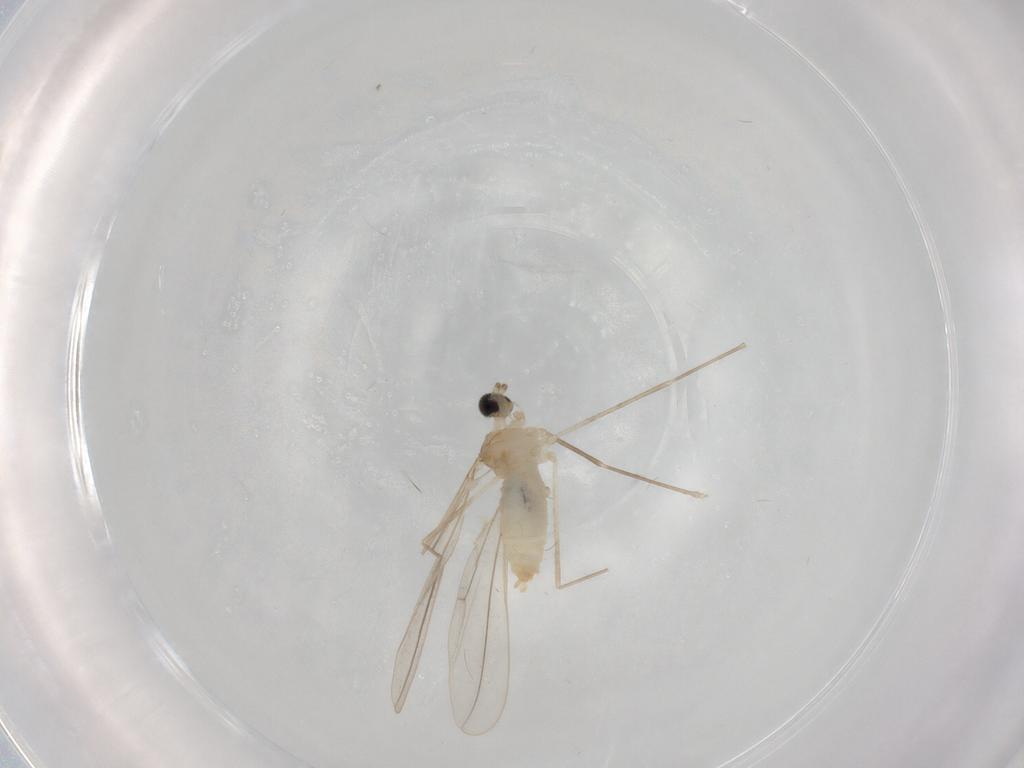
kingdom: Animalia
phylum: Arthropoda
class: Insecta
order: Diptera
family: Cecidomyiidae
